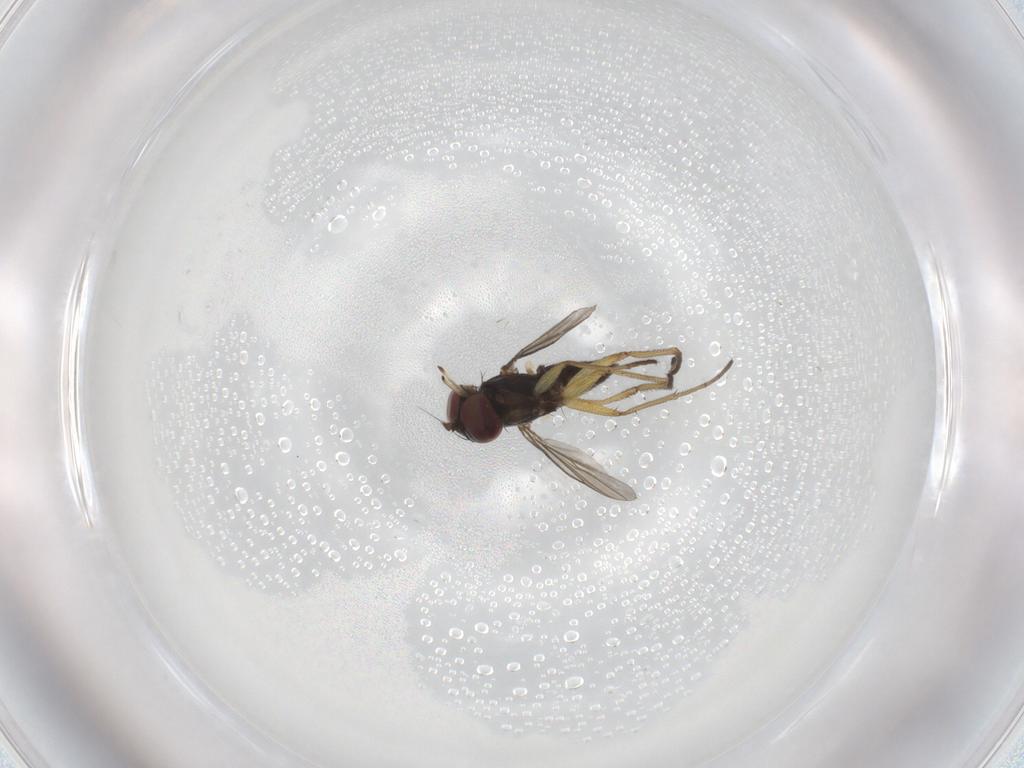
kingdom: Animalia
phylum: Arthropoda
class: Insecta
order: Diptera
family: Dolichopodidae
